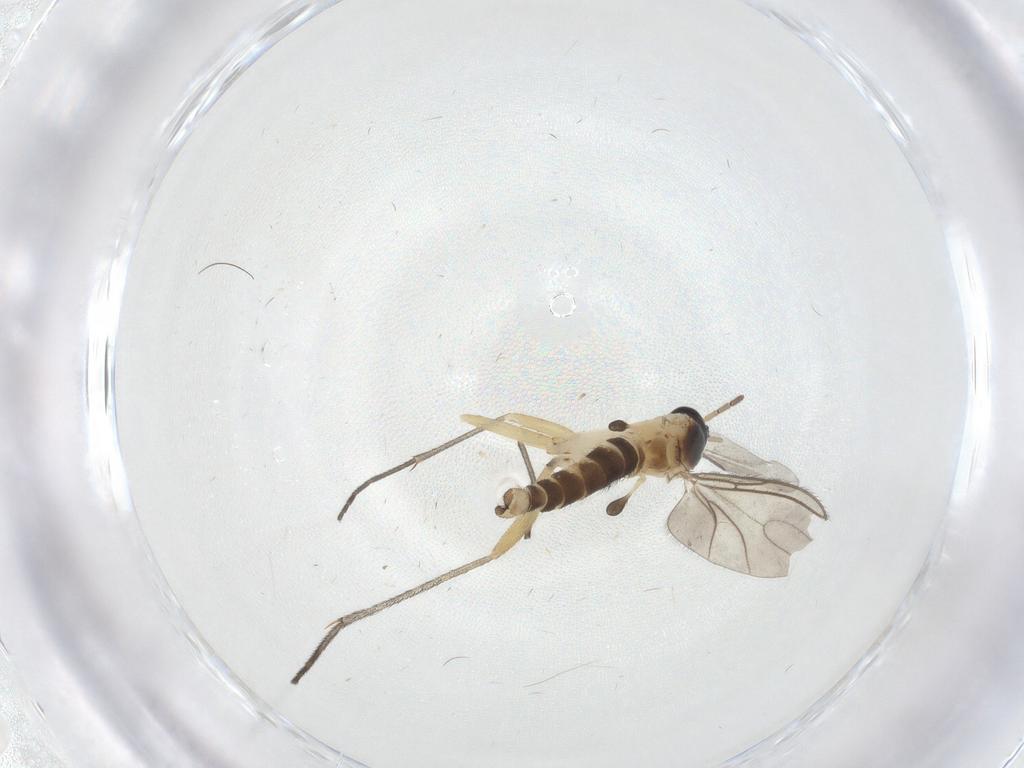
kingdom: Animalia
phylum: Arthropoda
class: Insecta
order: Diptera
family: Sciaridae
